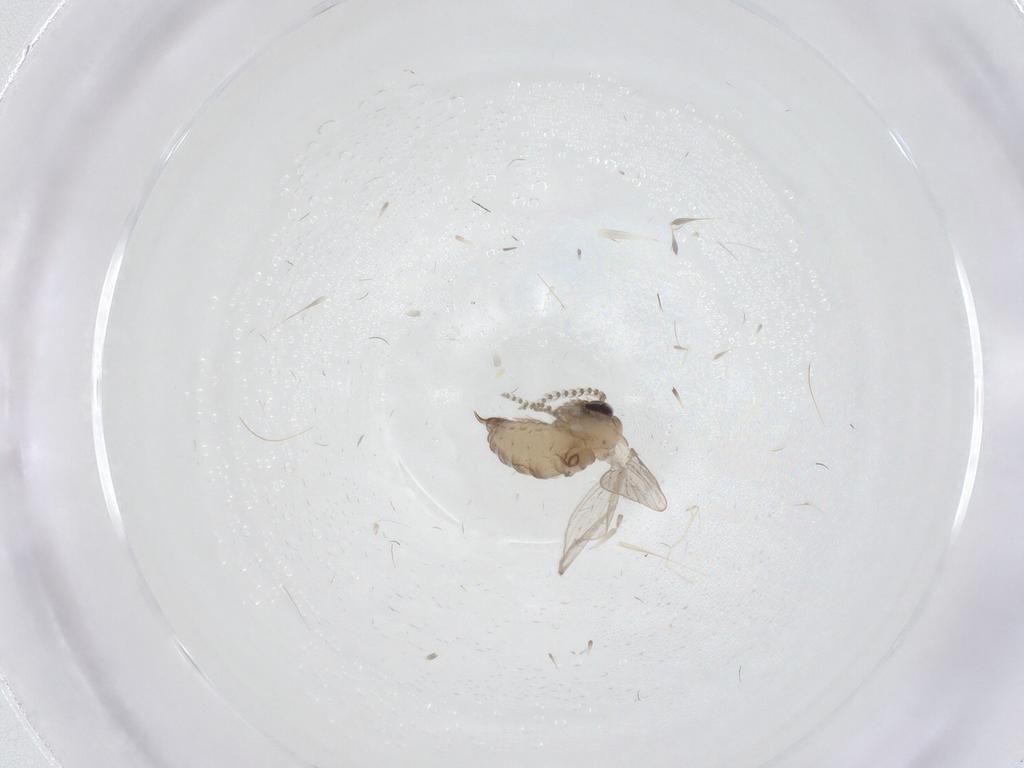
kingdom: Animalia
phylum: Arthropoda
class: Insecta
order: Diptera
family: Psychodidae
